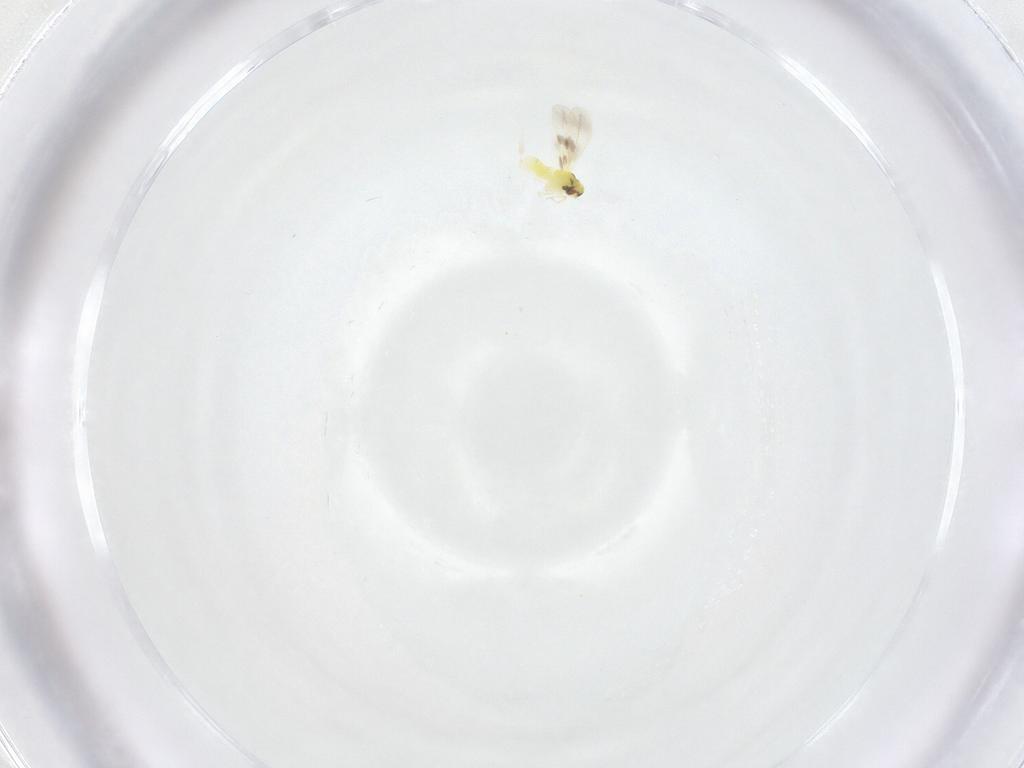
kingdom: Animalia
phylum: Arthropoda
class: Insecta
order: Hemiptera
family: Aleyrodidae
